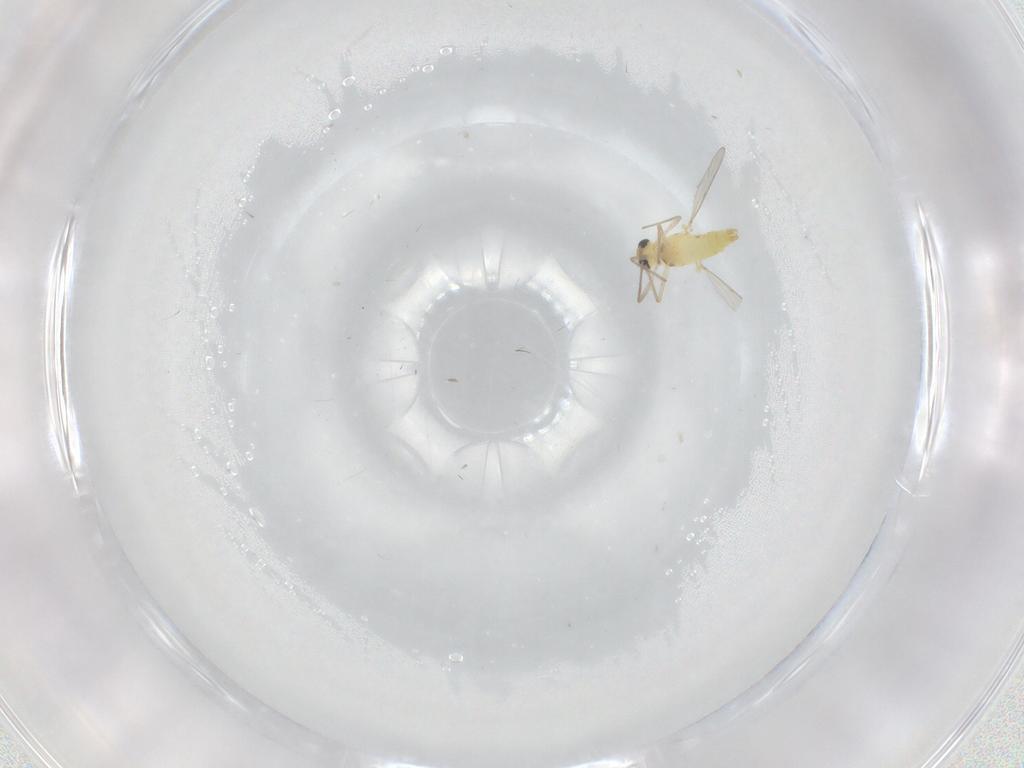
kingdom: Animalia
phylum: Arthropoda
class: Insecta
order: Diptera
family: Chironomidae
